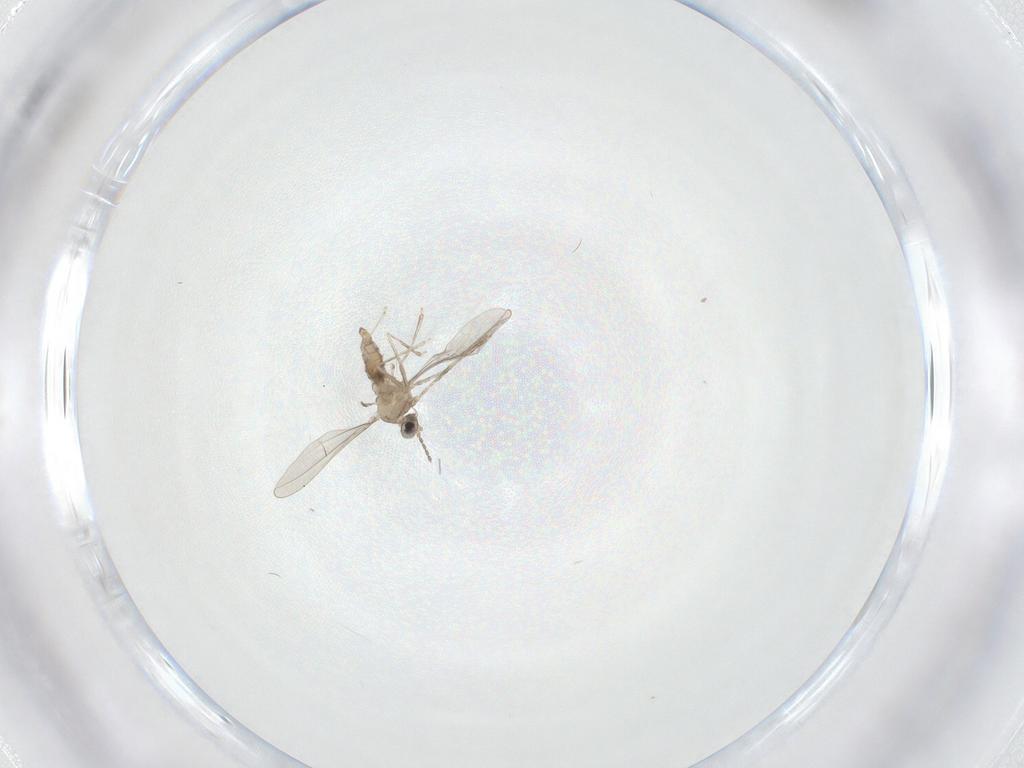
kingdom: Animalia
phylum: Arthropoda
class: Insecta
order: Diptera
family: Cecidomyiidae
